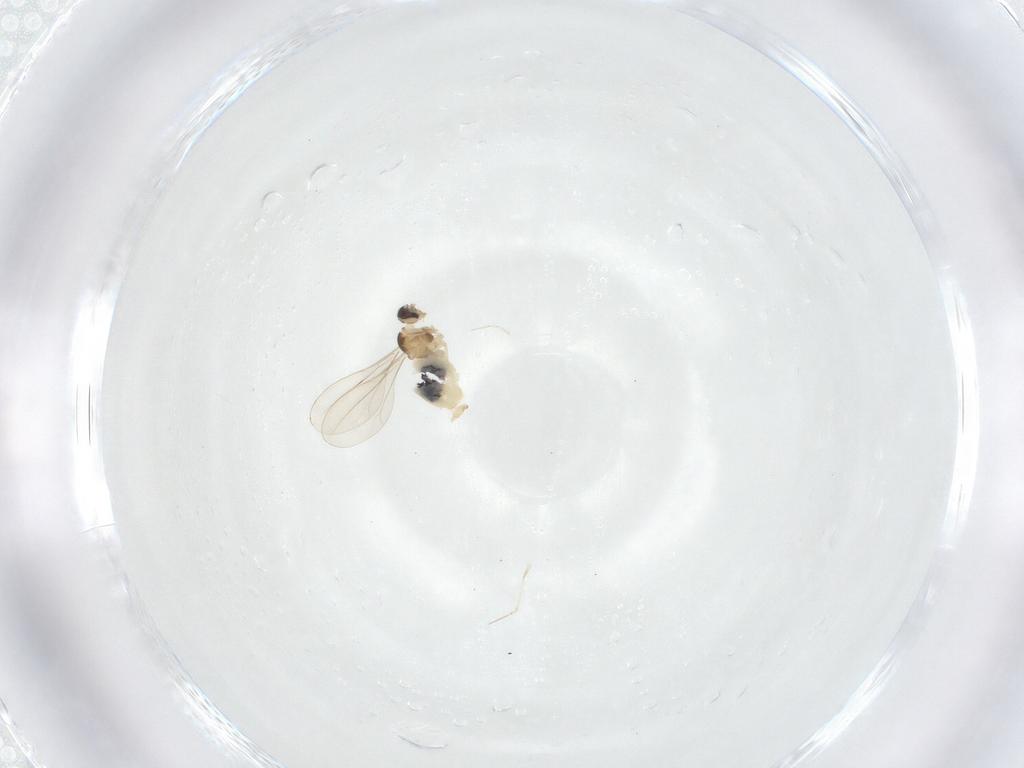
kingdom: Animalia
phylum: Arthropoda
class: Insecta
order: Diptera
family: Cecidomyiidae
